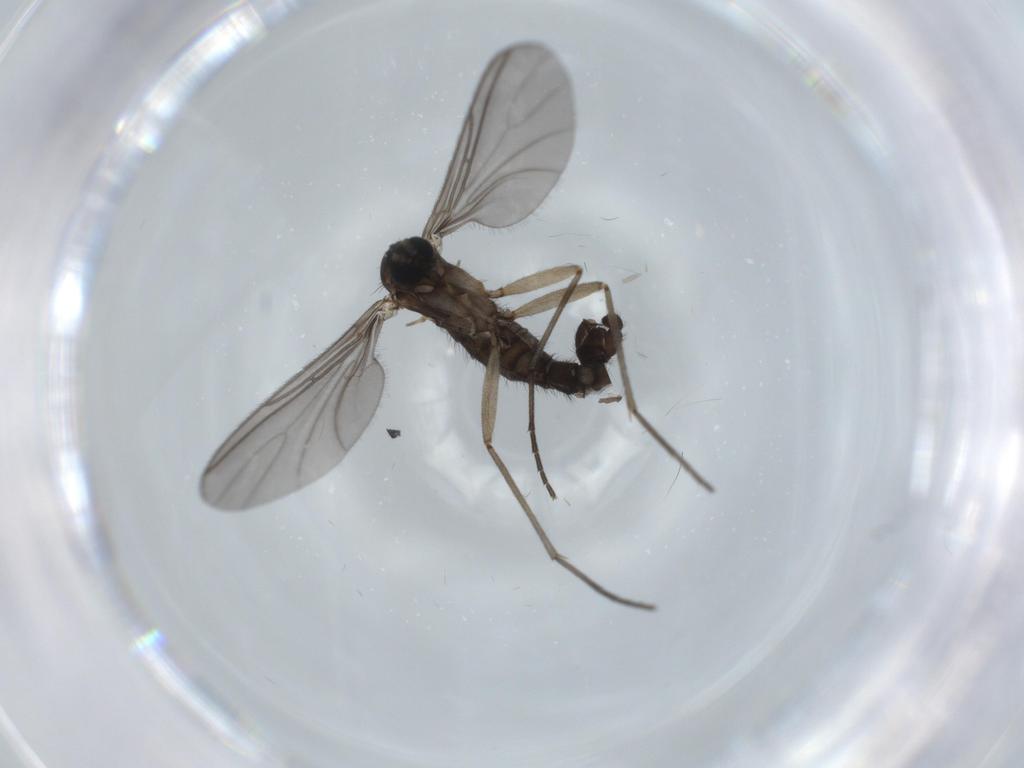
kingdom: Animalia
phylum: Arthropoda
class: Insecta
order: Diptera
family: Sciaridae
